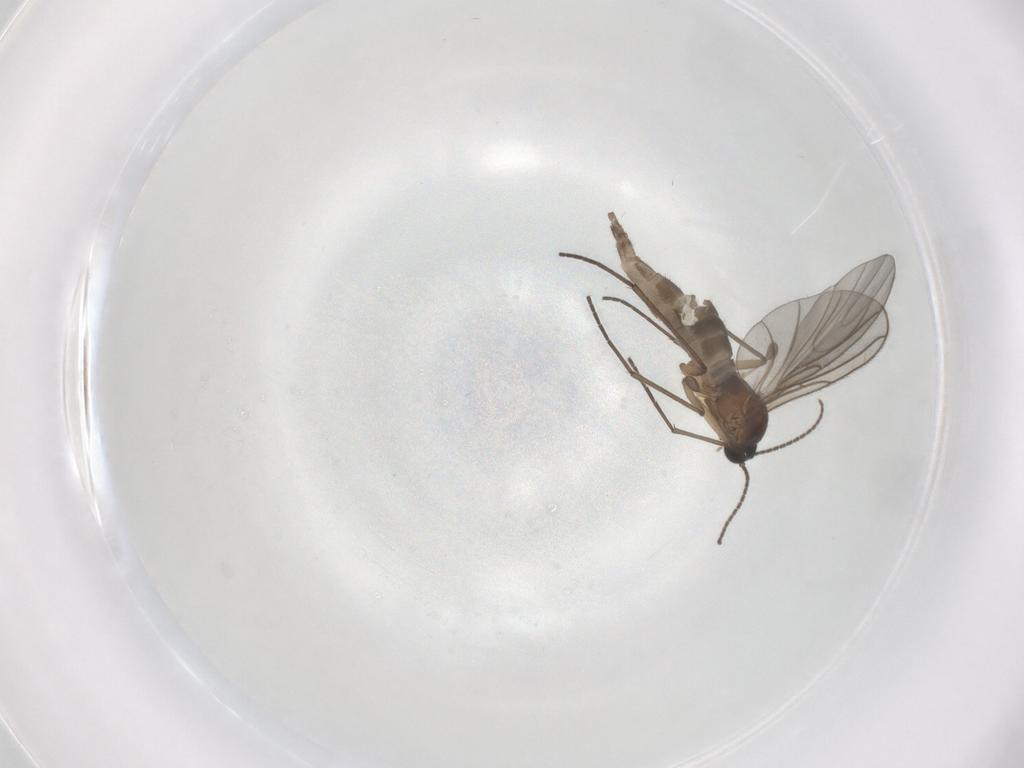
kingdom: Animalia
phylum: Arthropoda
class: Insecta
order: Diptera
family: Sciaridae
